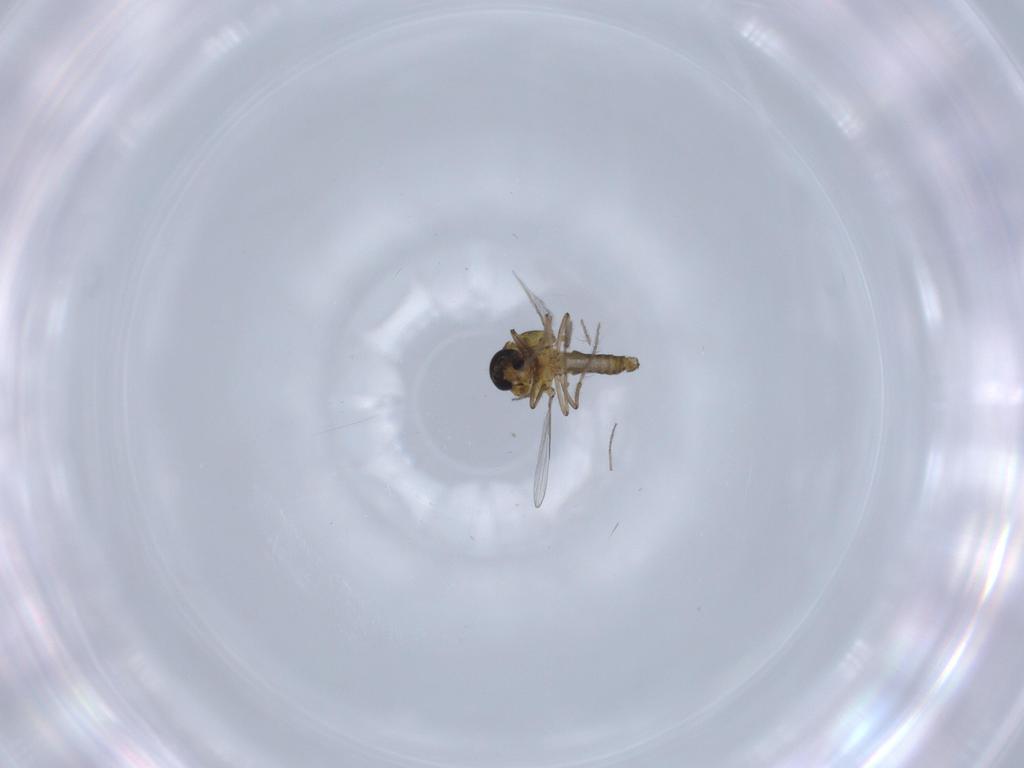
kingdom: Animalia
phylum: Arthropoda
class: Insecta
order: Diptera
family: Ceratopogonidae
